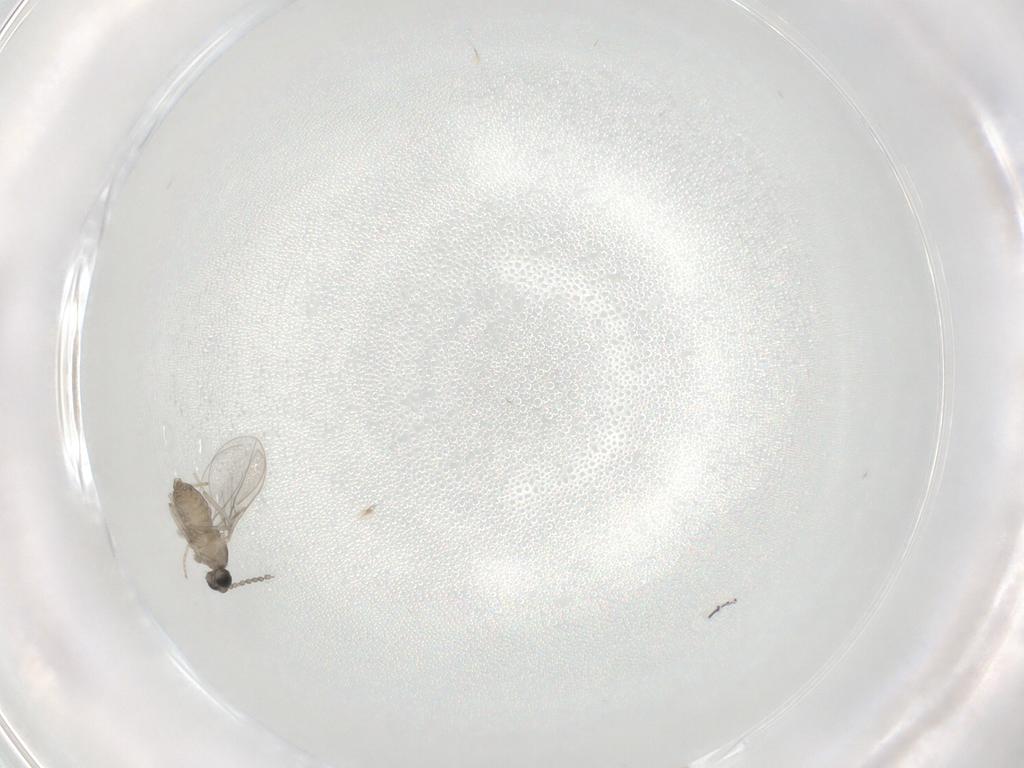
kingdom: Animalia
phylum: Arthropoda
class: Insecta
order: Diptera
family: Cecidomyiidae
